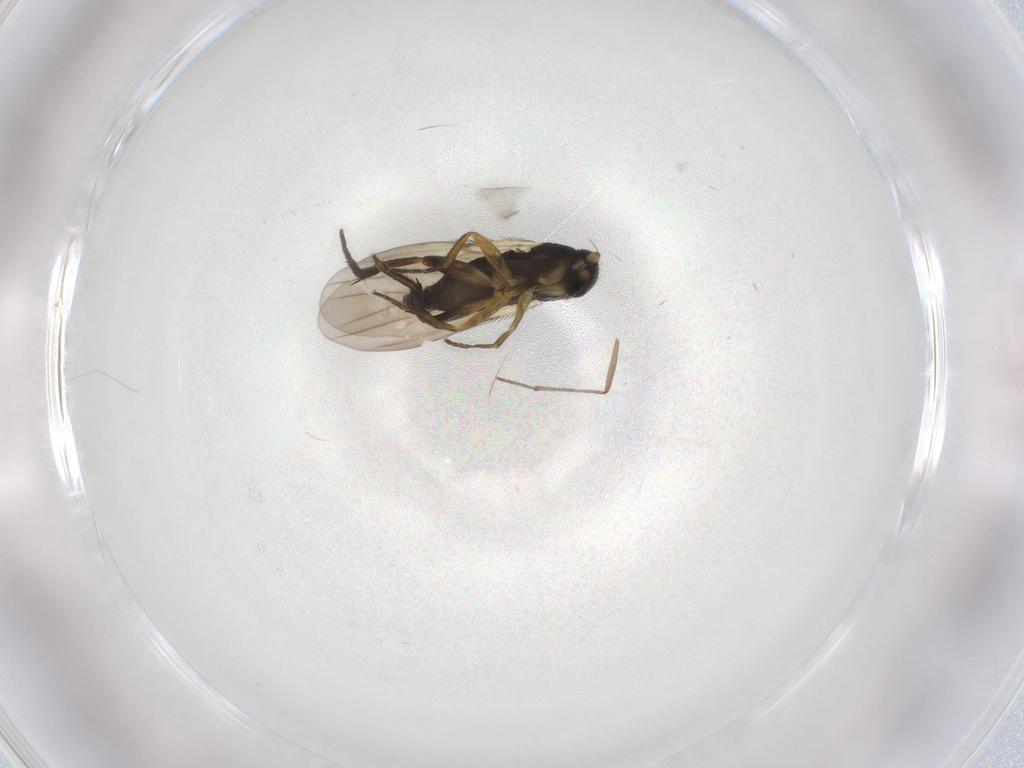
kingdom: Animalia
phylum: Arthropoda
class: Insecta
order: Diptera
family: Phoridae
